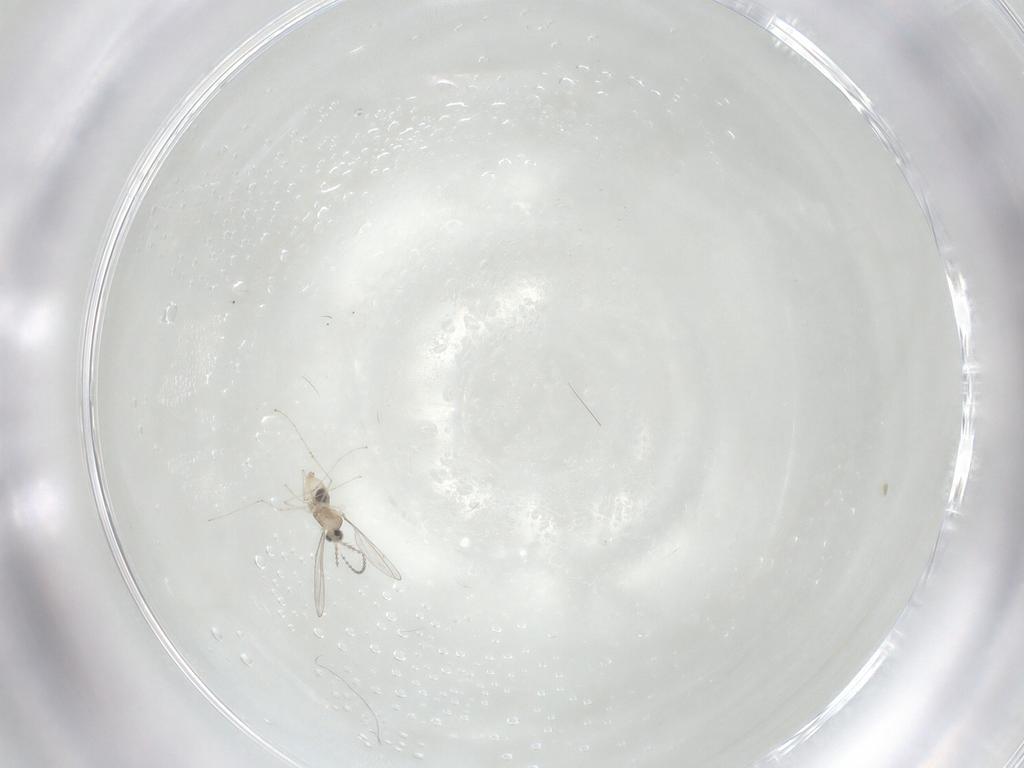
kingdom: Animalia
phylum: Arthropoda
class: Insecta
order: Diptera
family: Cecidomyiidae
